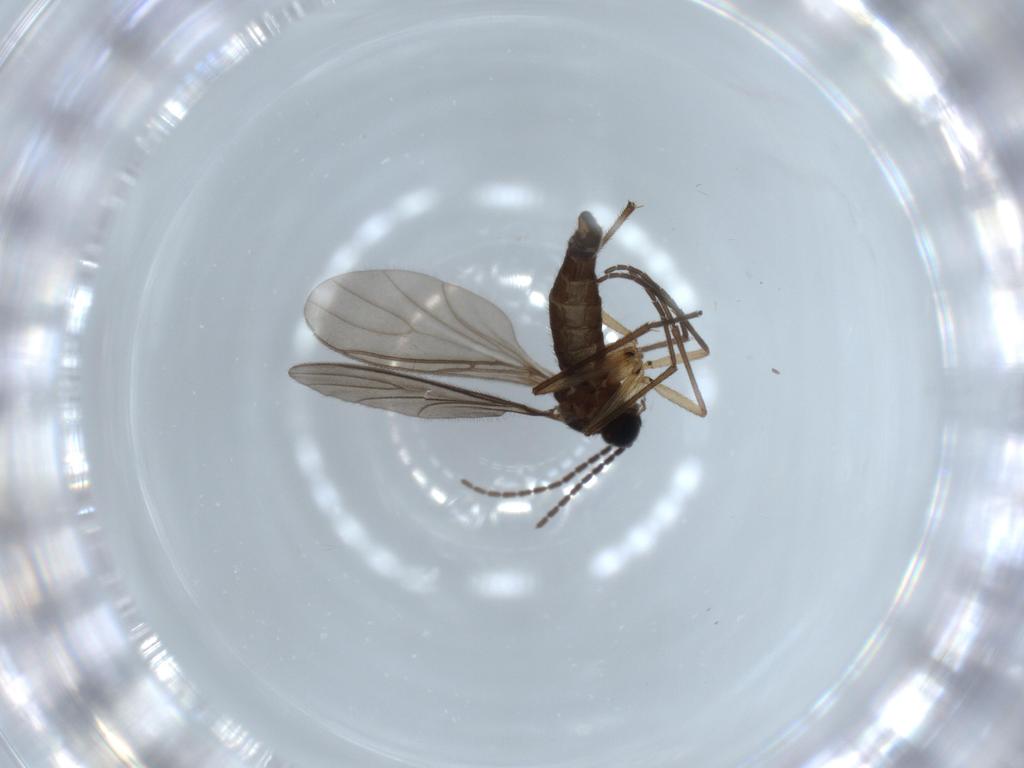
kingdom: Animalia
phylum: Arthropoda
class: Insecta
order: Diptera
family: Sciaridae
